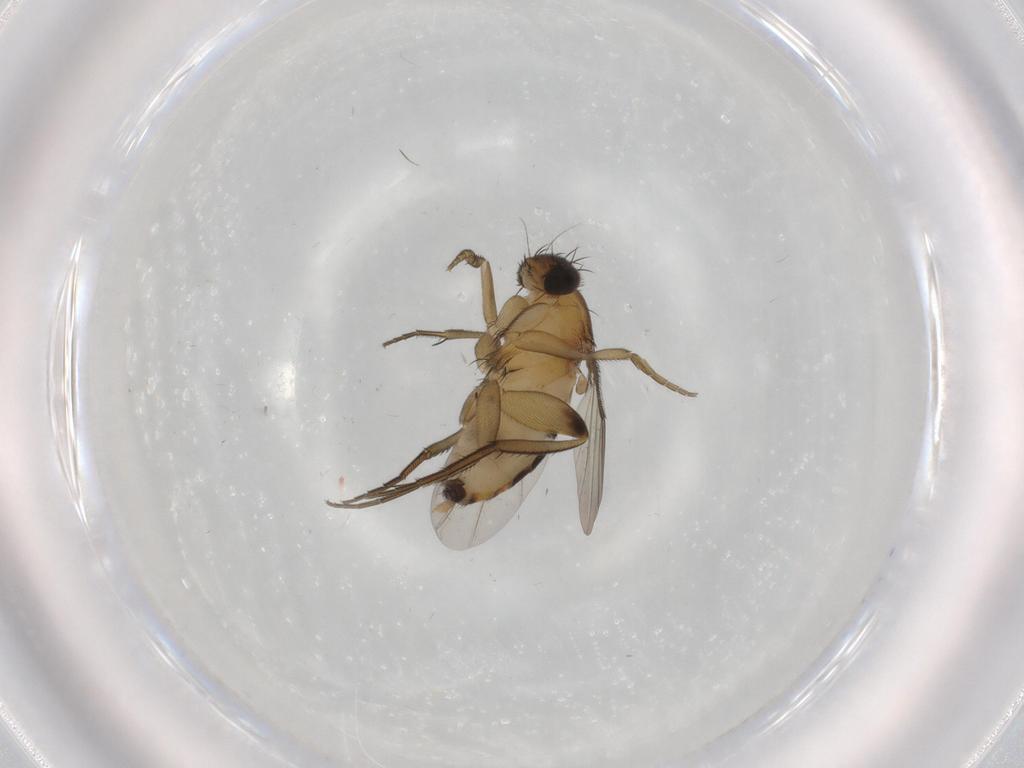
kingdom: Animalia
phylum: Arthropoda
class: Insecta
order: Diptera
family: Phoridae
